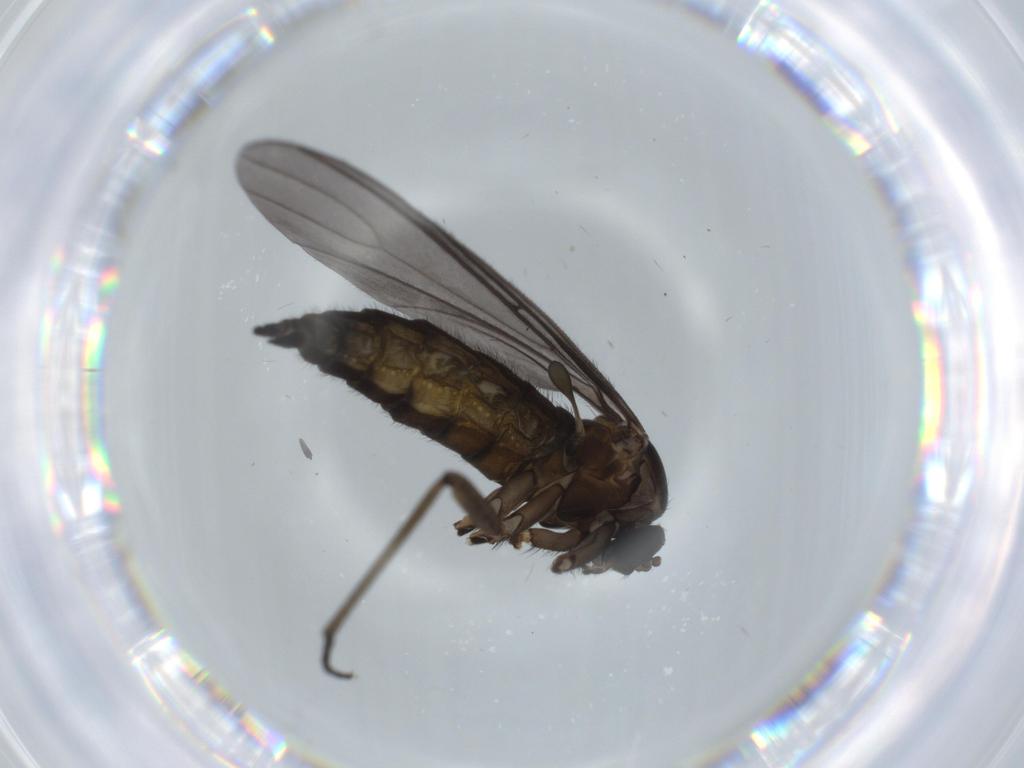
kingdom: Animalia
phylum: Arthropoda
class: Insecta
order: Diptera
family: Sciaridae
